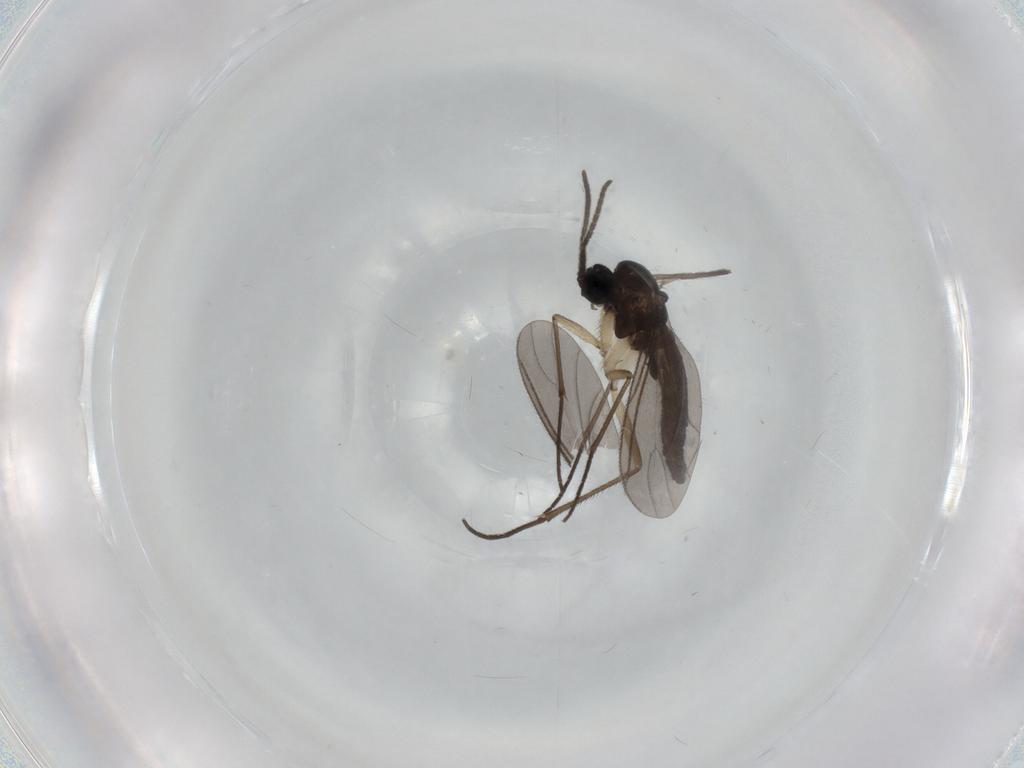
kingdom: Animalia
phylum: Arthropoda
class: Insecta
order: Diptera
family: Sciaridae
